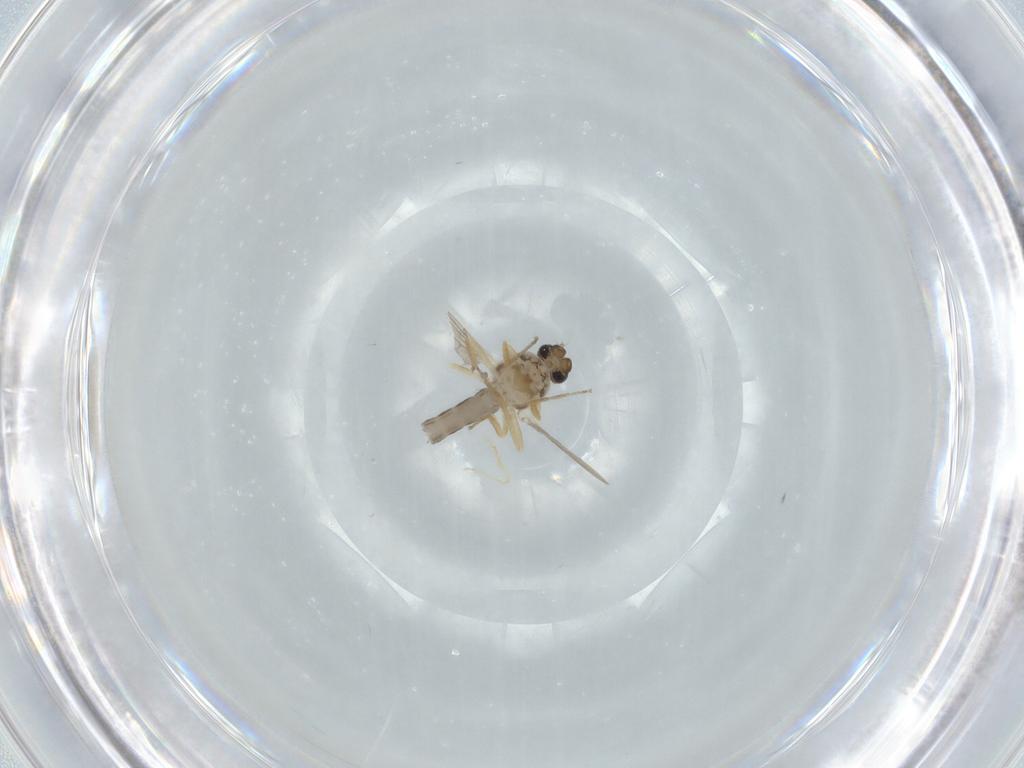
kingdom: Animalia
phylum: Arthropoda
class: Insecta
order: Diptera
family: Ceratopogonidae
